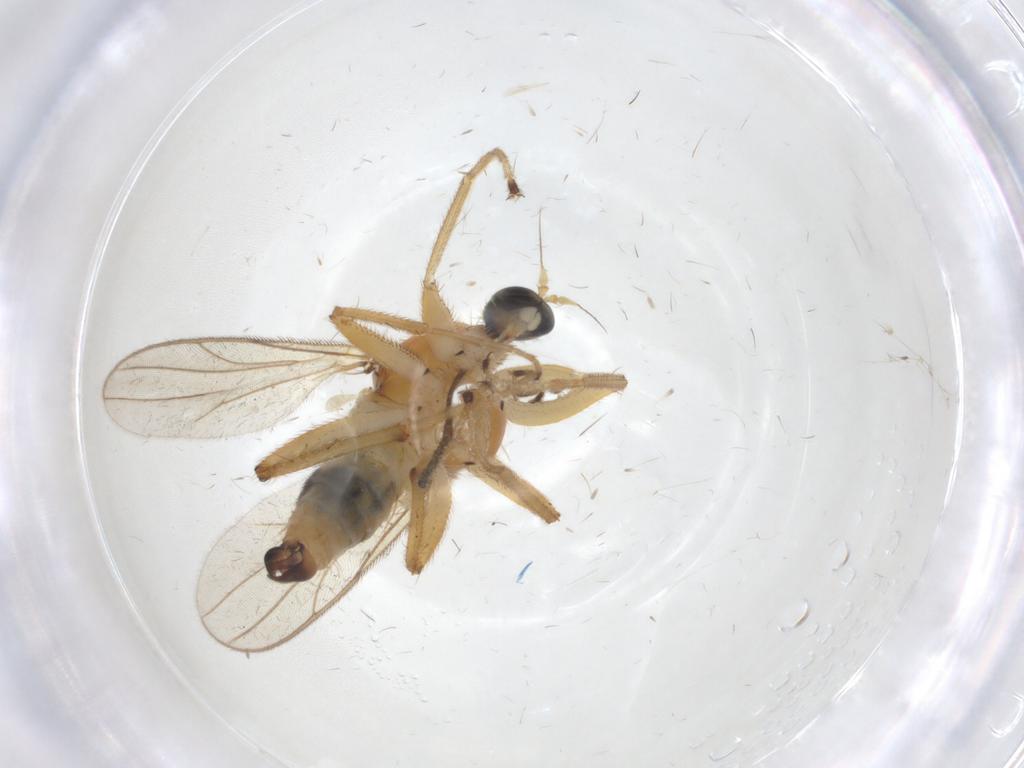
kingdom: Animalia
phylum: Arthropoda
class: Insecta
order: Diptera
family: Hybotidae
